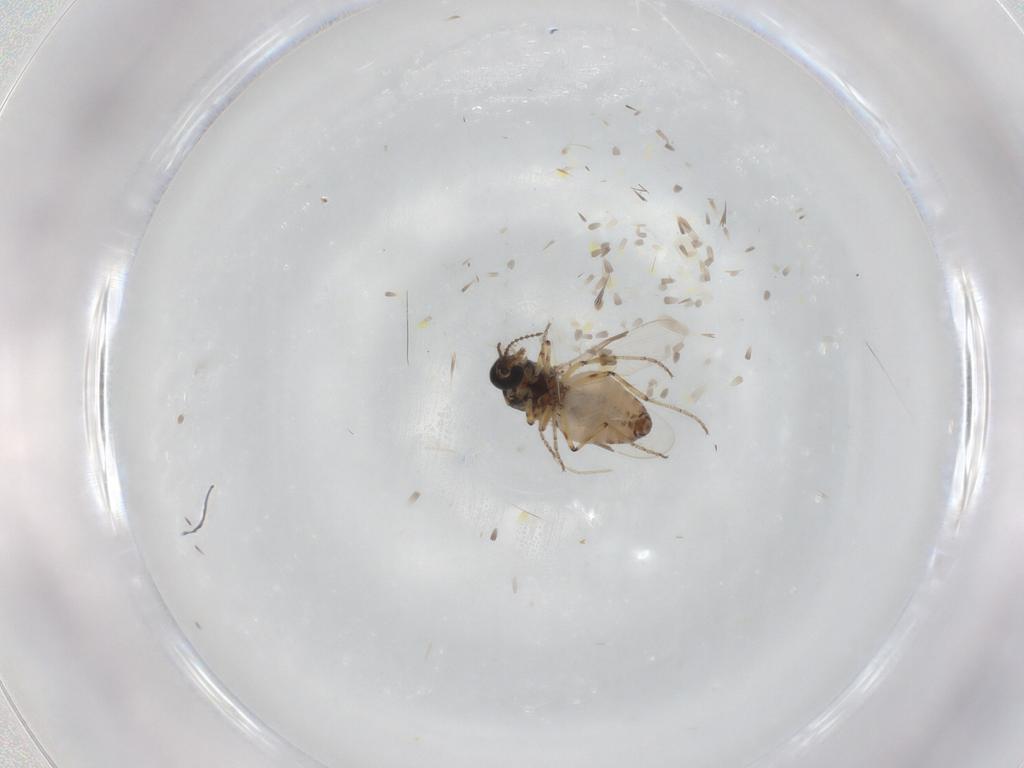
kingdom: Animalia
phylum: Arthropoda
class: Insecta
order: Diptera
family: Ceratopogonidae
